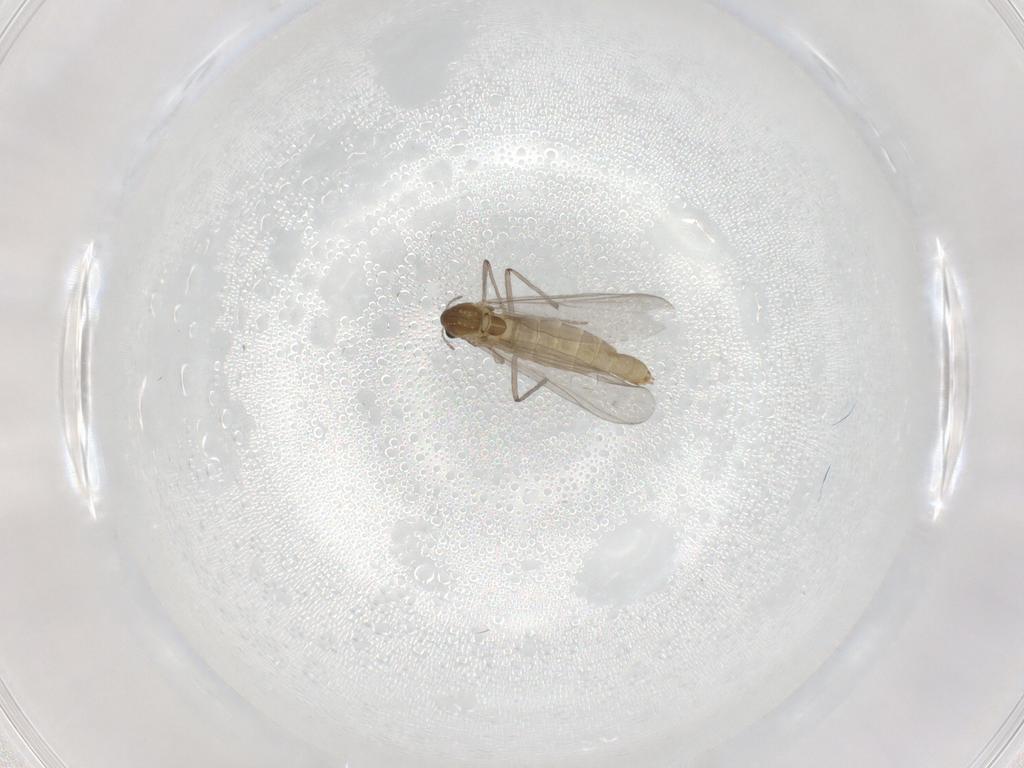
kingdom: Animalia
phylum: Arthropoda
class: Insecta
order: Diptera
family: Chironomidae
